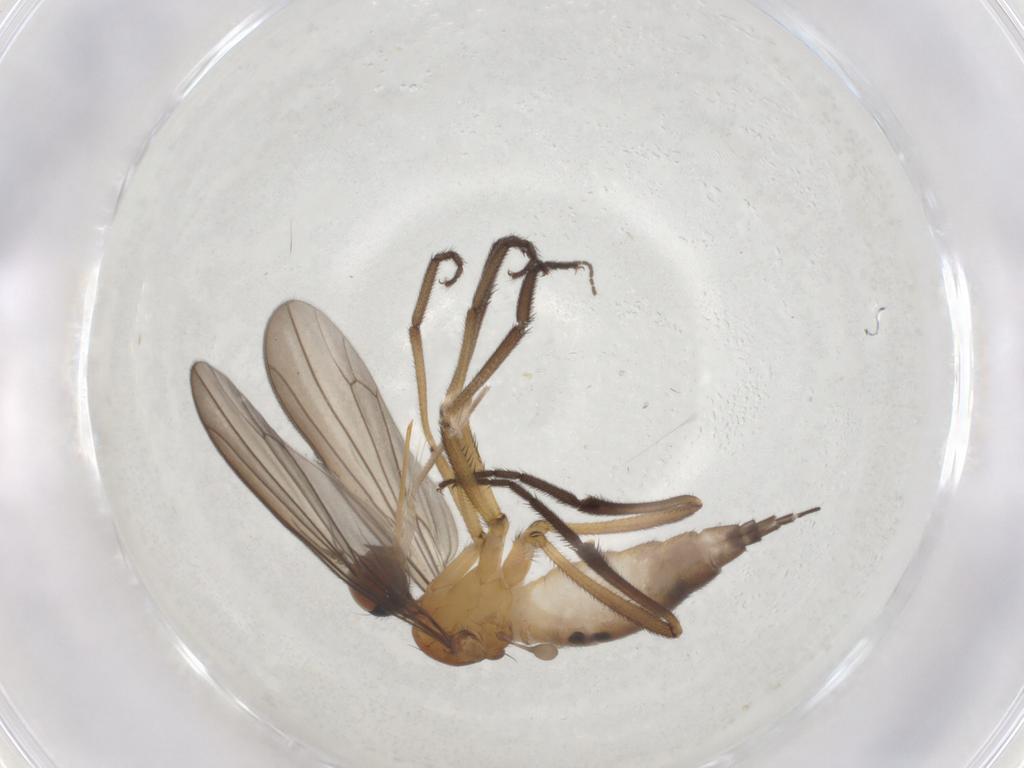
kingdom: Animalia
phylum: Arthropoda
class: Insecta
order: Diptera
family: Empididae
